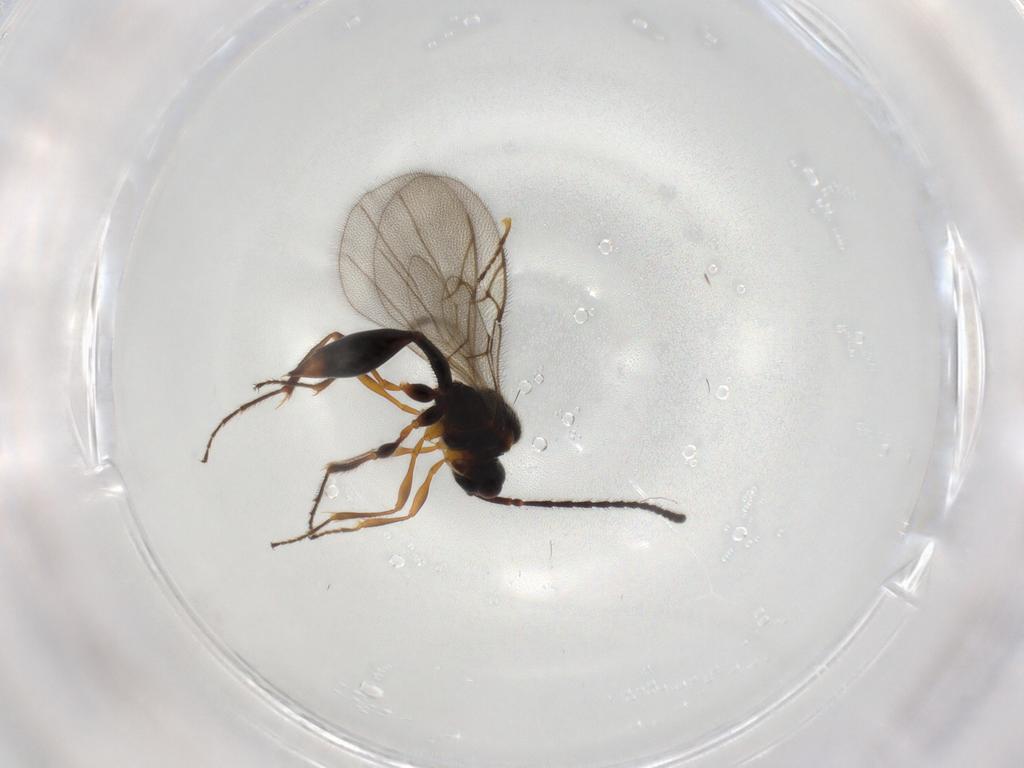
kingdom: Animalia
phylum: Arthropoda
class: Insecta
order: Hymenoptera
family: Diapriidae
